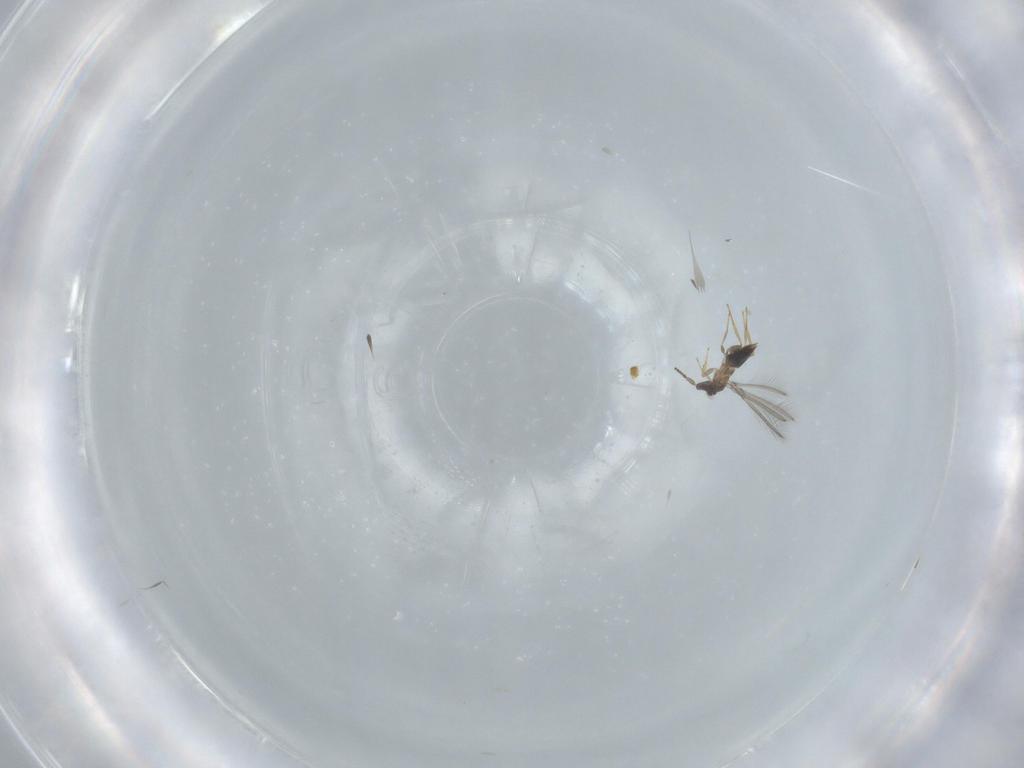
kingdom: Animalia
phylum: Arthropoda
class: Insecta
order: Hymenoptera
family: Mymaridae
